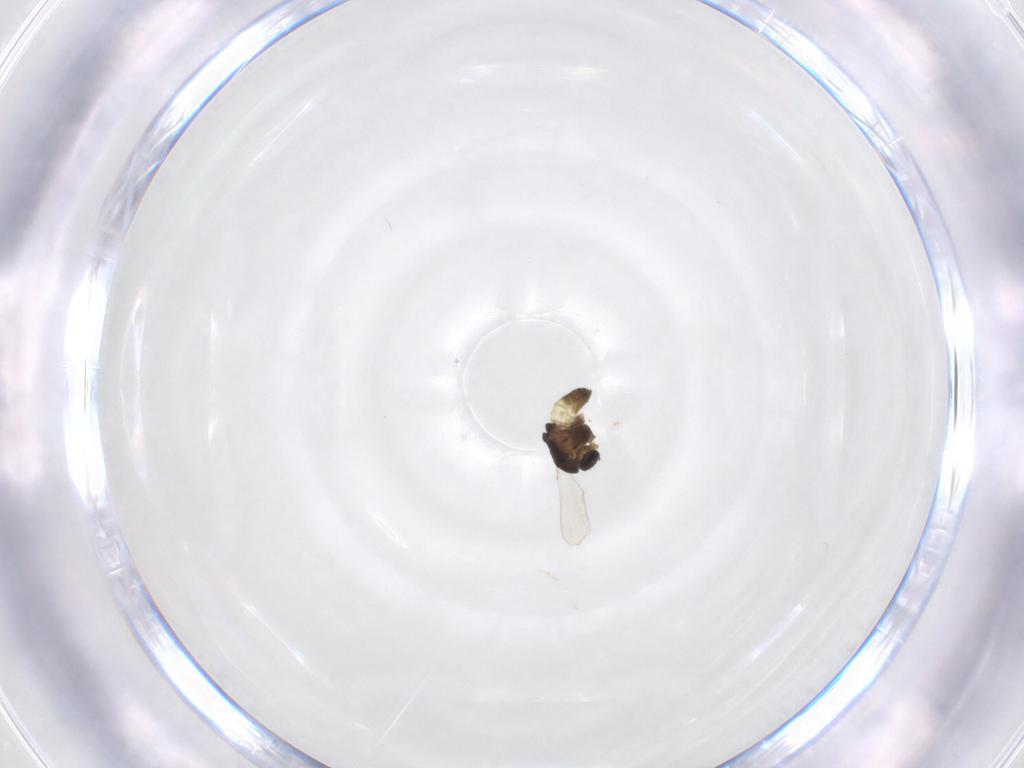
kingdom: Animalia
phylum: Arthropoda
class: Insecta
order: Diptera
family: Chironomidae
